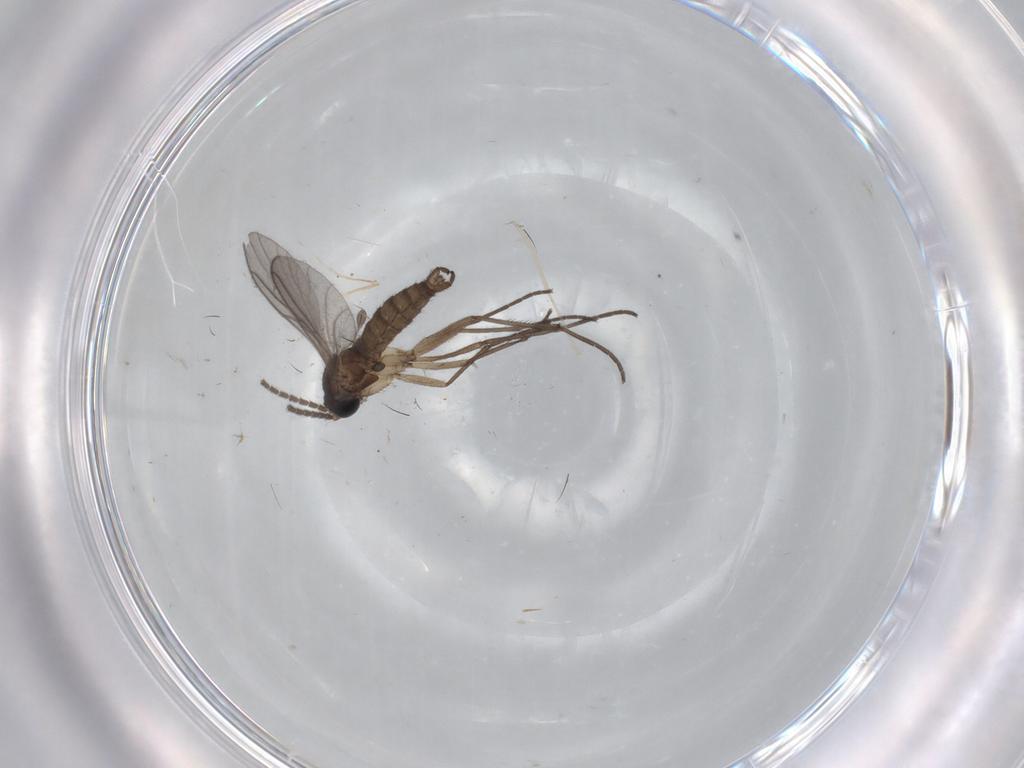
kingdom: Animalia
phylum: Arthropoda
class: Insecta
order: Diptera
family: Sciaridae
